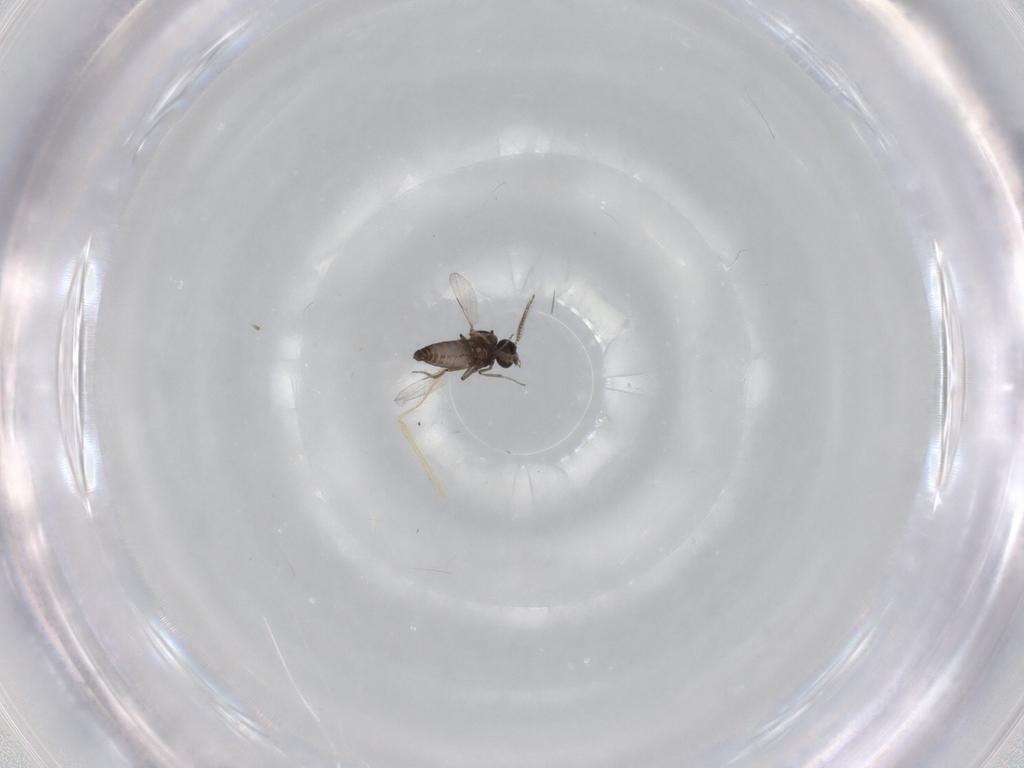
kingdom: Animalia
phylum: Arthropoda
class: Insecta
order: Diptera
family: Ceratopogonidae
